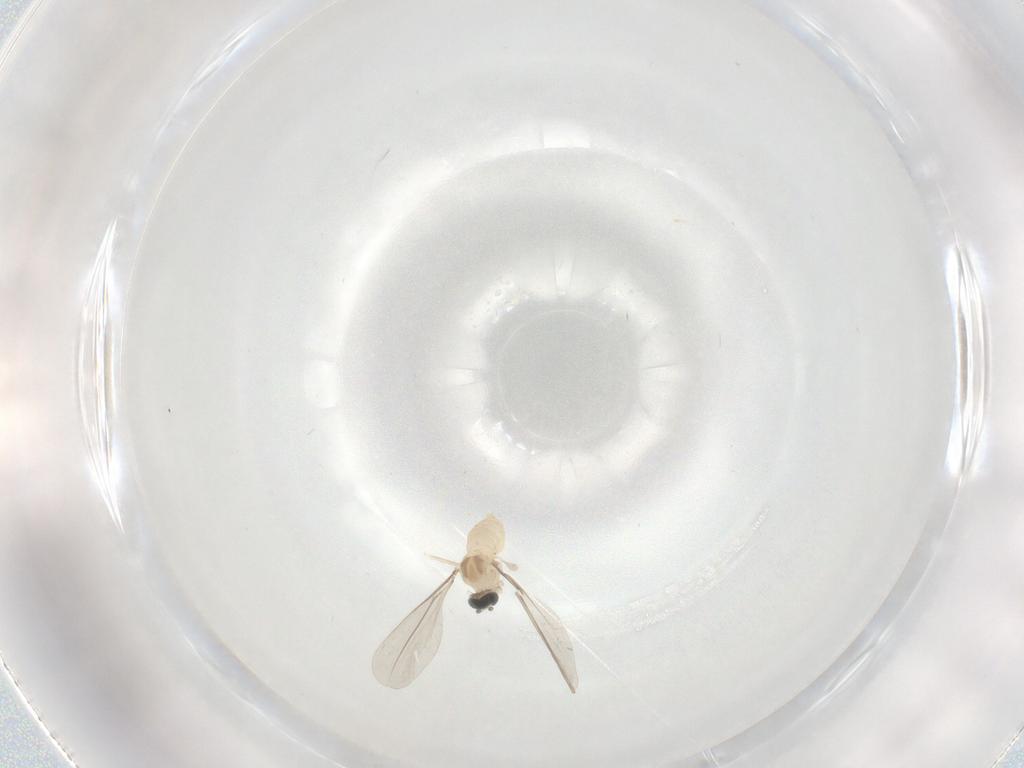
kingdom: Animalia
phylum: Arthropoda
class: Insecta
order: Diptera
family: Cecidomyiidae
